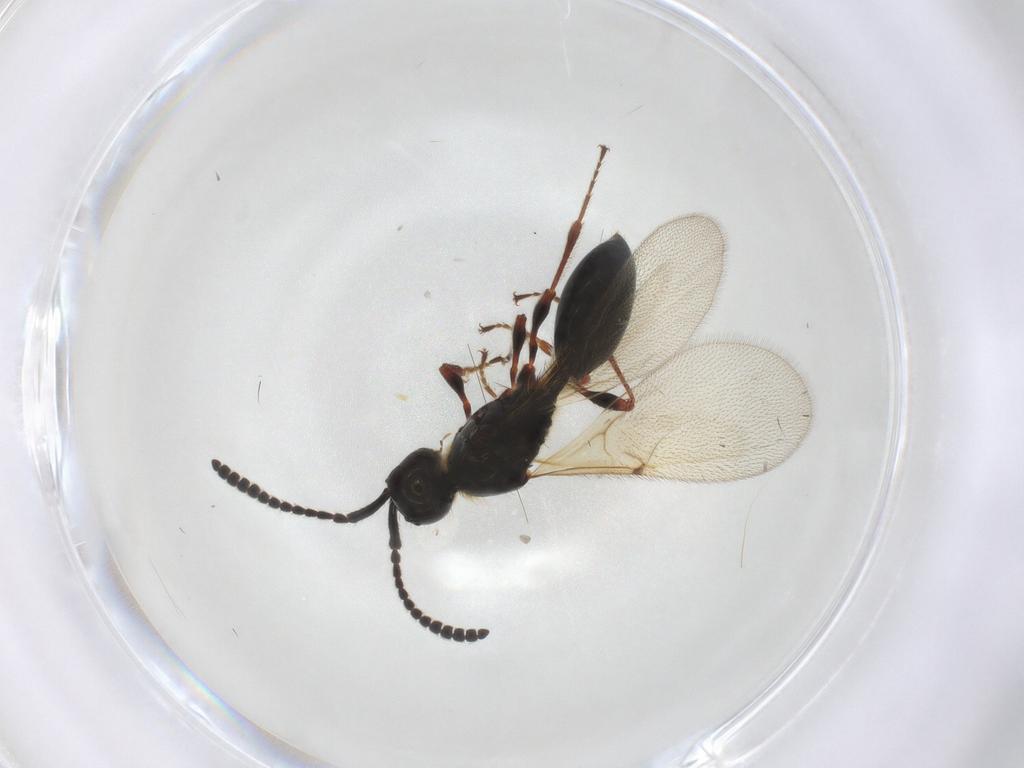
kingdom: Animalia
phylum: Arthropoda
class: Insecta
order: Hymenoptera
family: Diapriidae
